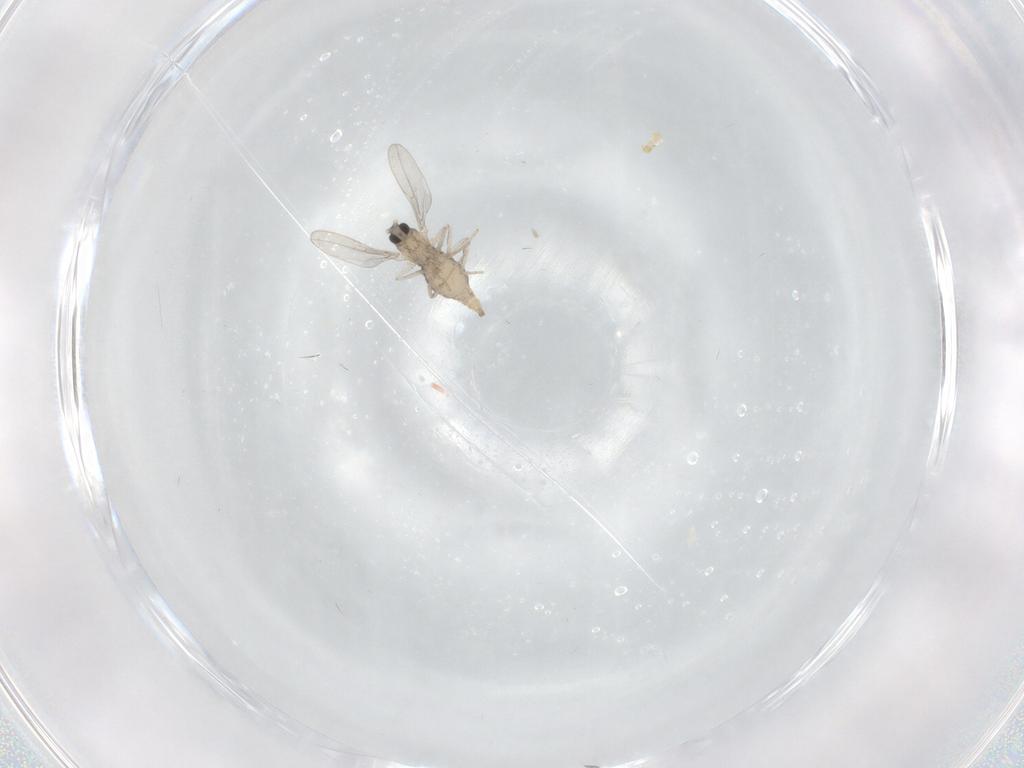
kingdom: Animalia
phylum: Arthropoda
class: Insecta
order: Diptera
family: Cecidomyiidae
